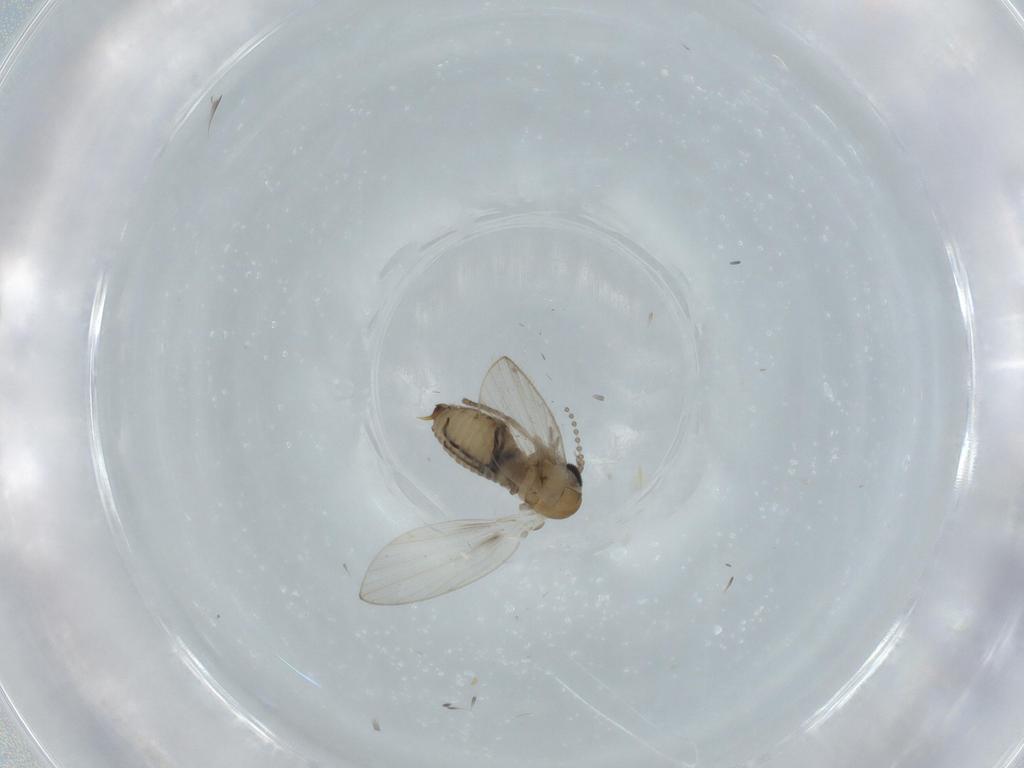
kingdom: Animalia
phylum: Arthropoda
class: Insecta
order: Diptera
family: Psychodidae
